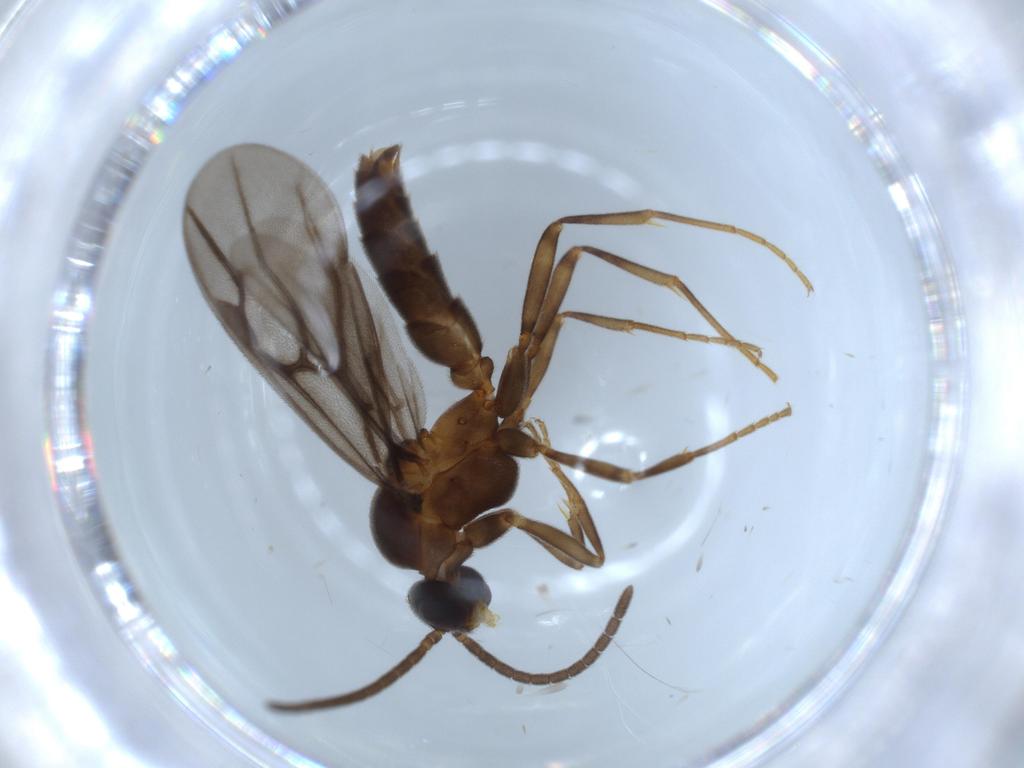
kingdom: Animalia
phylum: Arthropoda
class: Insecta
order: Hymenoptera
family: Formicidae
